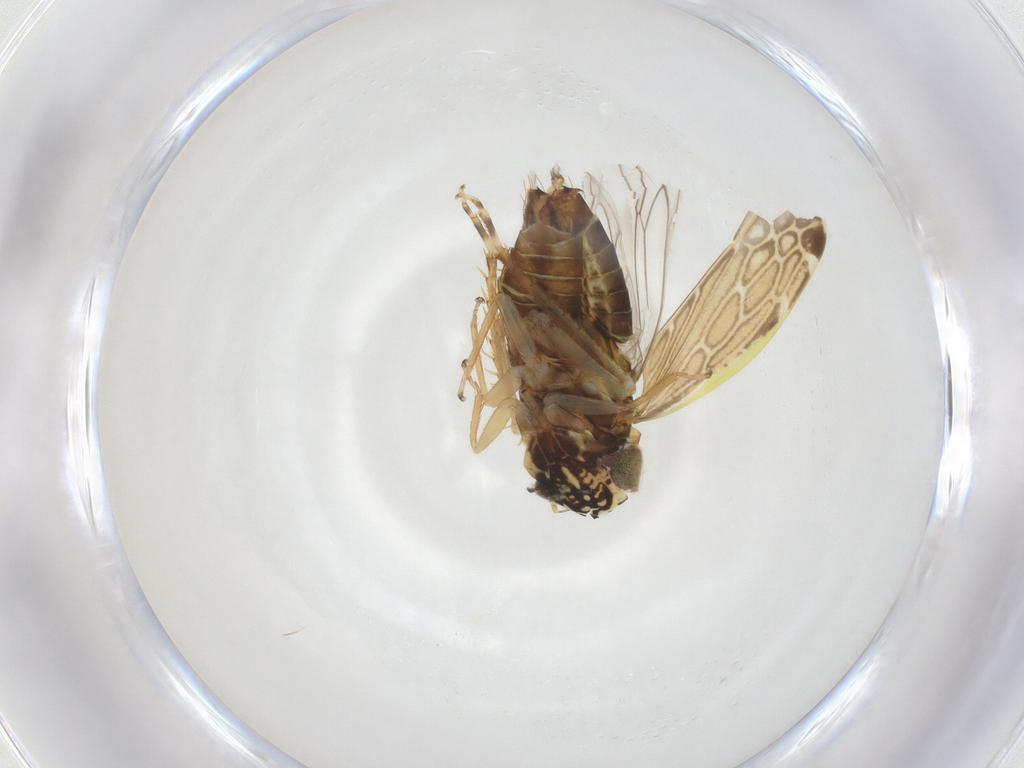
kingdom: Animalia
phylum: Arthropoda
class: Insecta
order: Hemiptera
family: Cicadellidae
